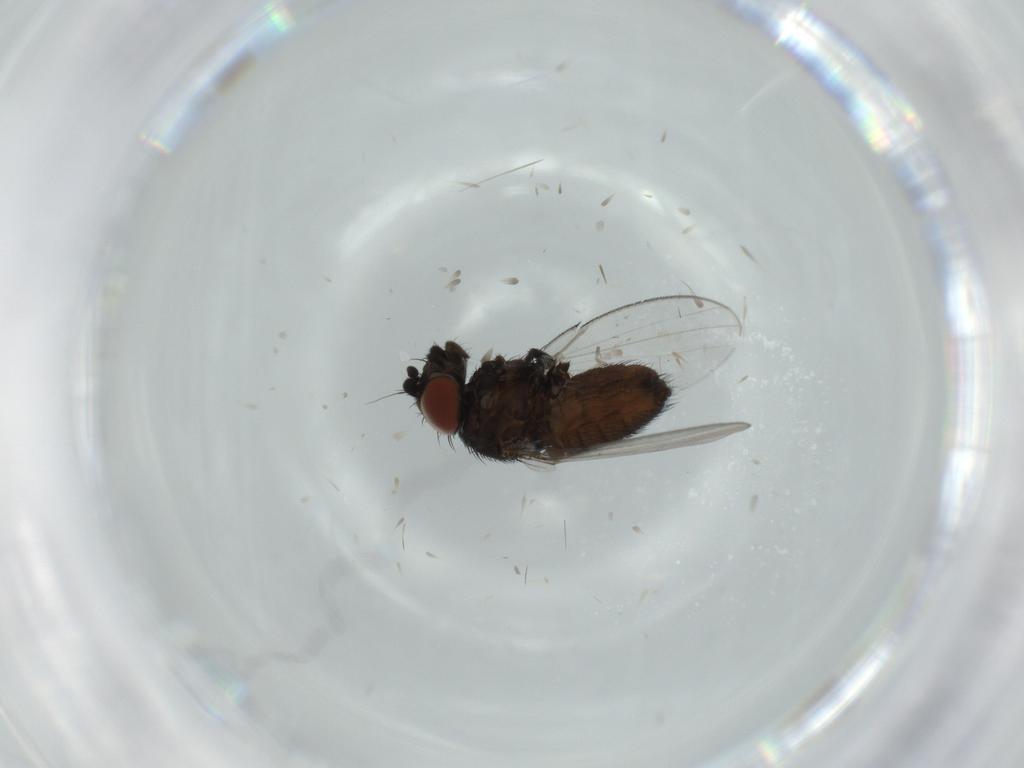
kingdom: Animalia
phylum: Arthropoda
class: Insecta
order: Diptera
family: Milichiidae
